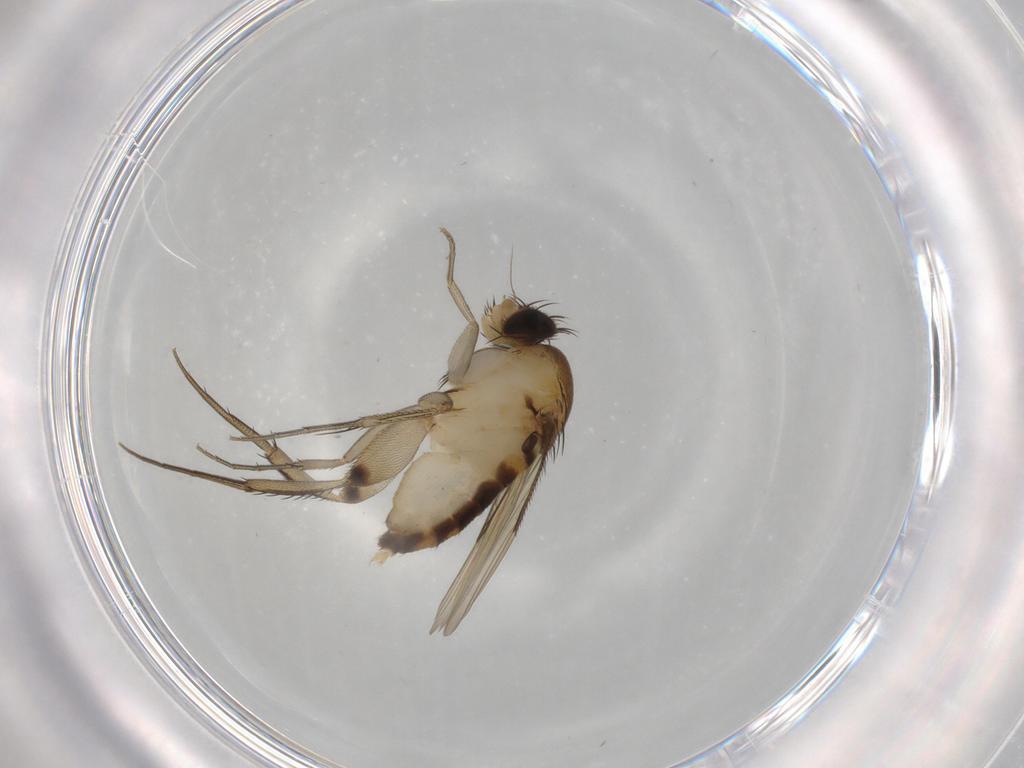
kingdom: Animalia
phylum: Arthropoda
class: Insecta
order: Diptera
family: Phoridae
